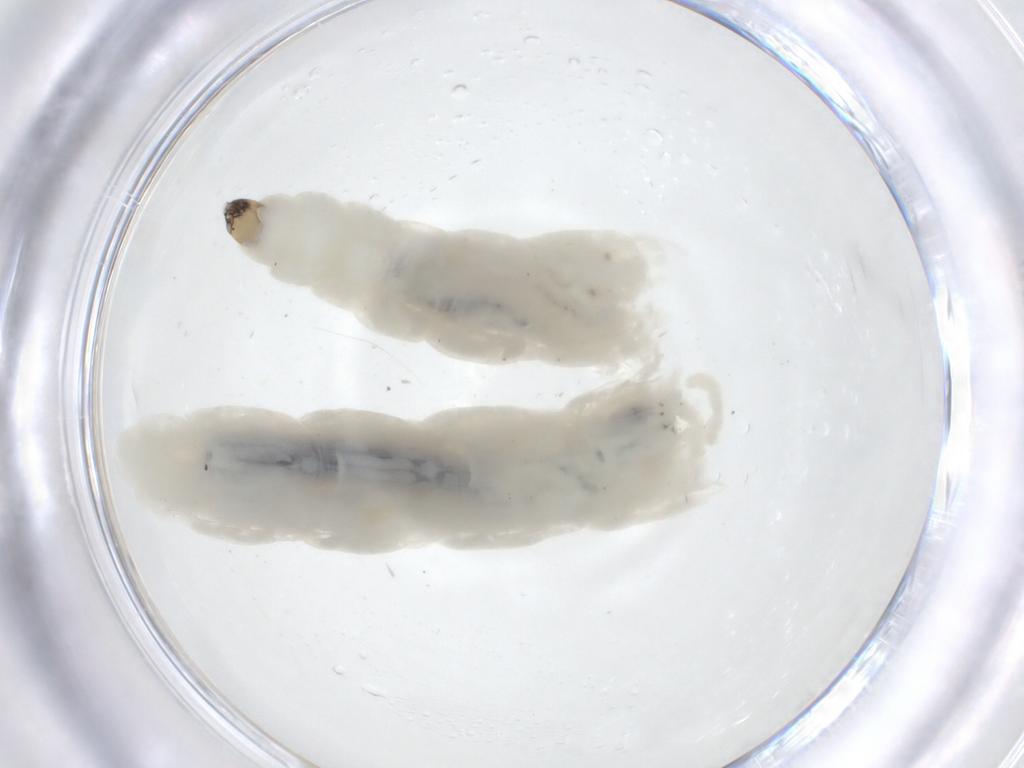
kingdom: Animalia
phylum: Arthropoda
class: Insecta
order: Diptera
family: Mycetophilidae
